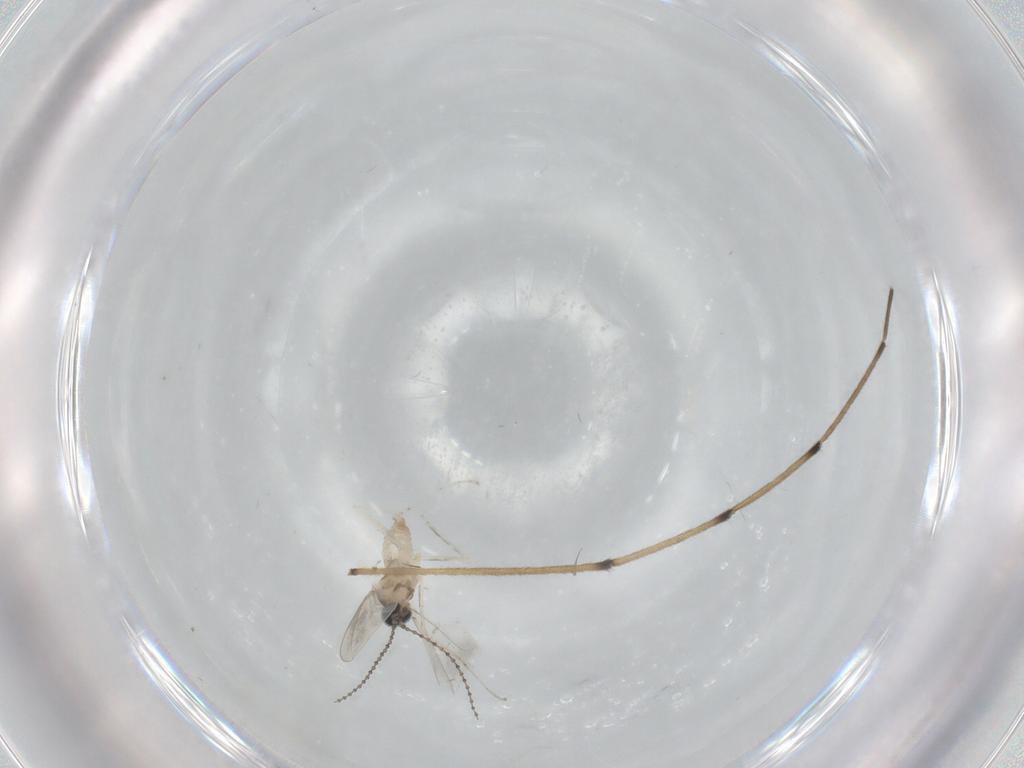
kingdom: Animalia
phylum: Arthropoda
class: Insecta
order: Diptera
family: Cecidomyiidae
